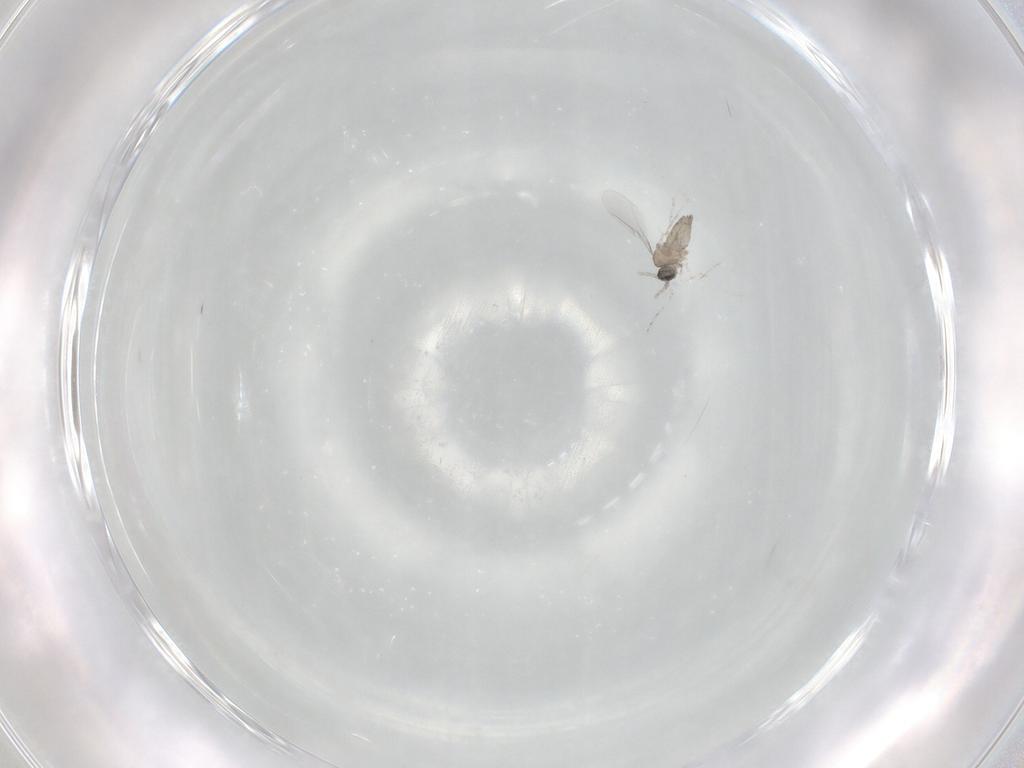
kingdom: Animalia
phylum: Arthropoda
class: Insecta
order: Diptera
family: Cecidomyiidae
